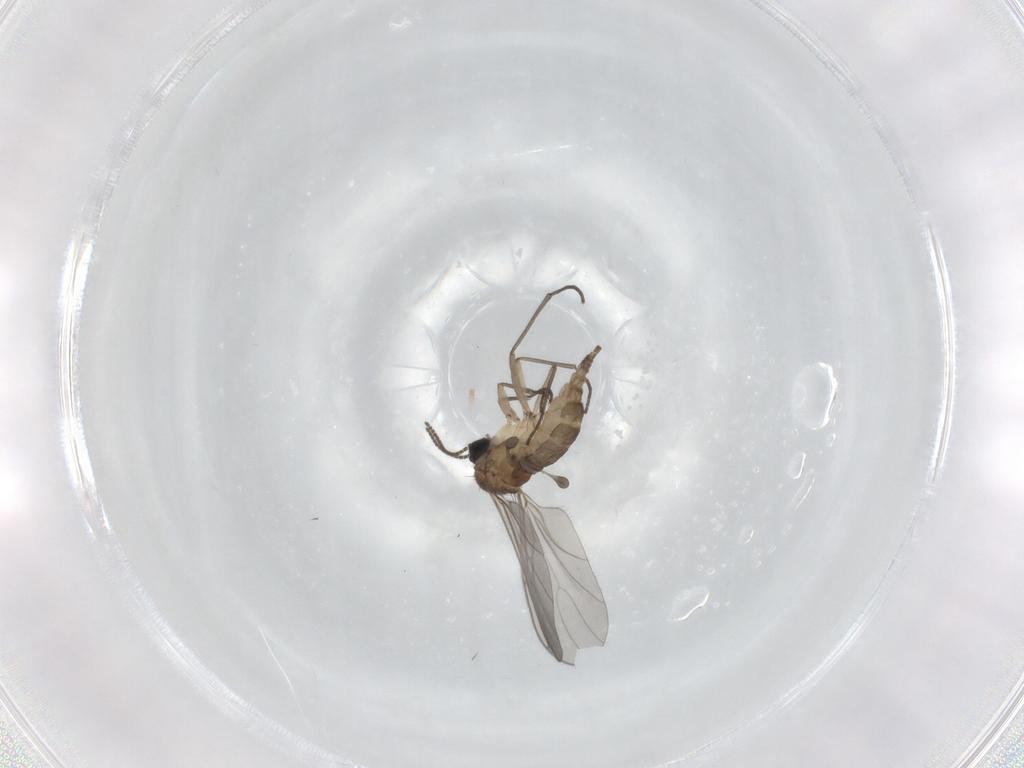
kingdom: Animalia
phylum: Arthropoda
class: Insecta
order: Diptera
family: Sciaridae
